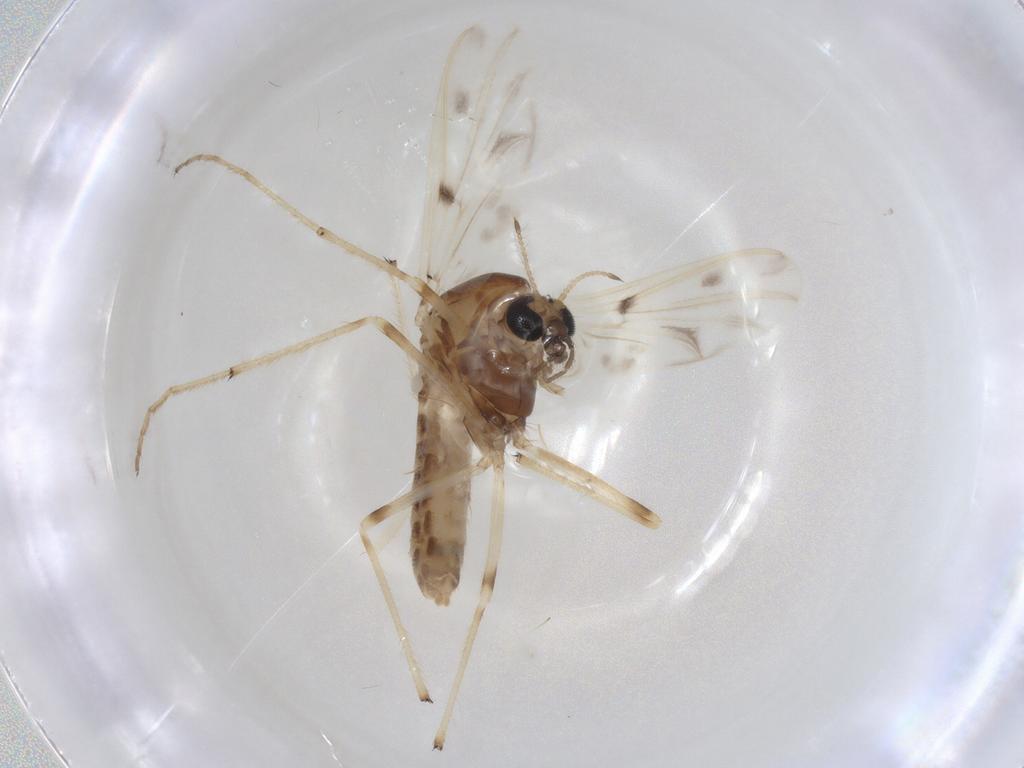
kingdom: Animalia
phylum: Arthropoda
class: Insecta
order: Diptera
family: Chironomidae
